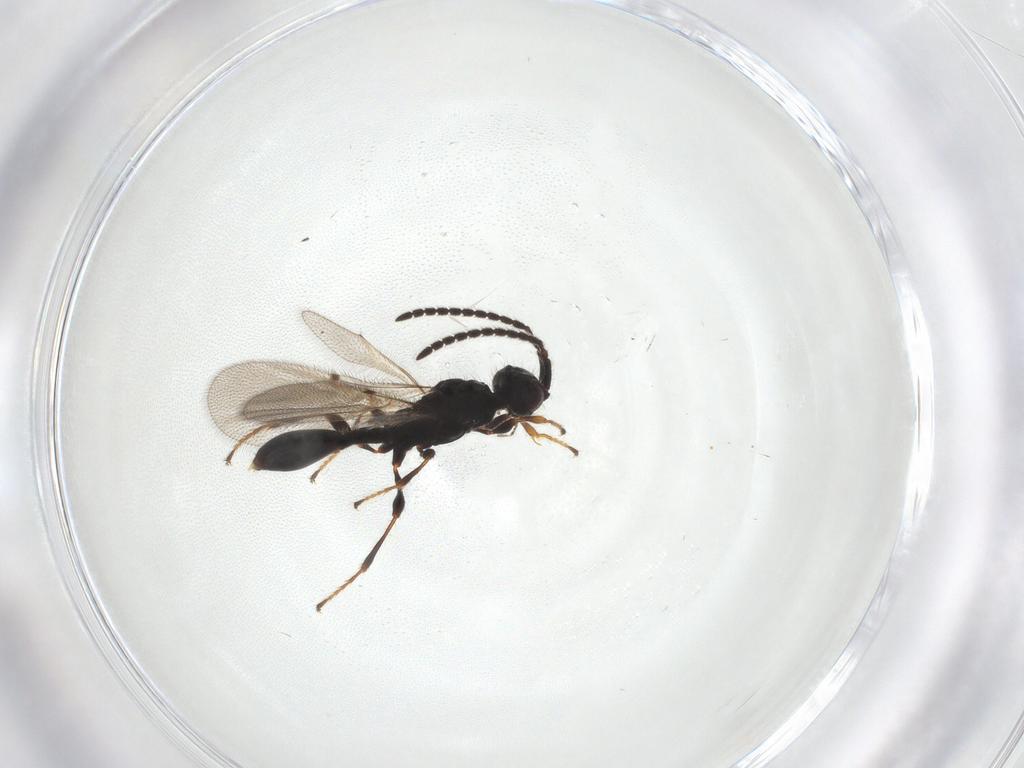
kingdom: Animalia
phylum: Arthropoda
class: Insecta
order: Hymenoptera
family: Diapriidae
